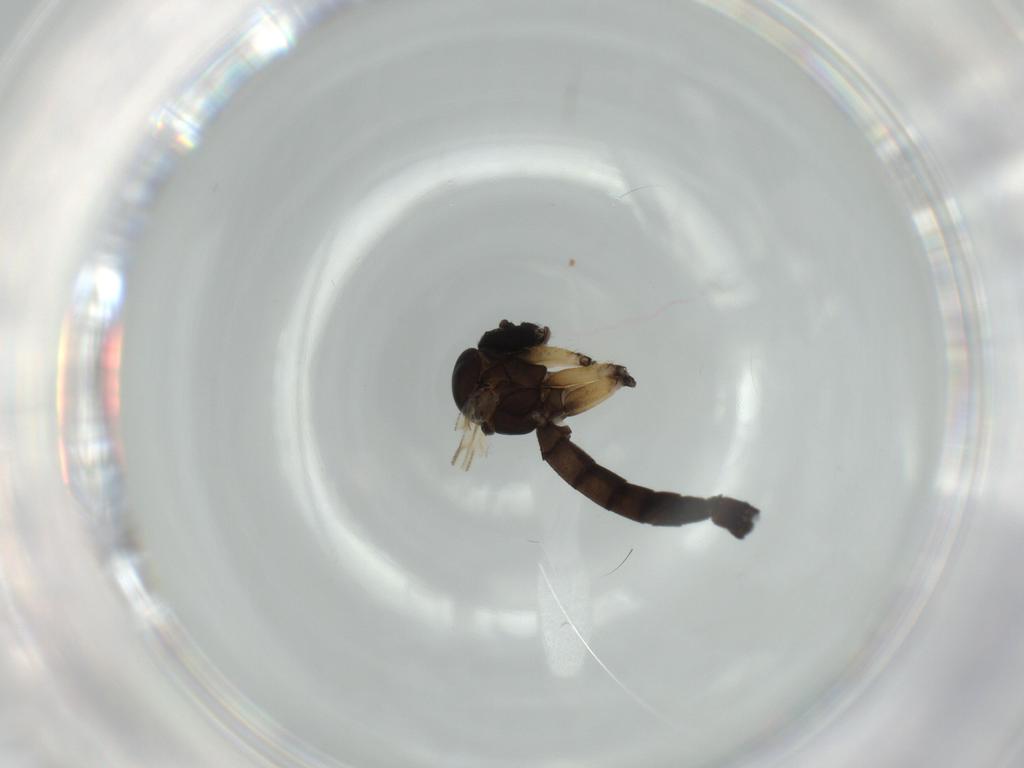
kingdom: Animalia
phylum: Arthropoda
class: Insecta
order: Diptera
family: Mycetophilidae
